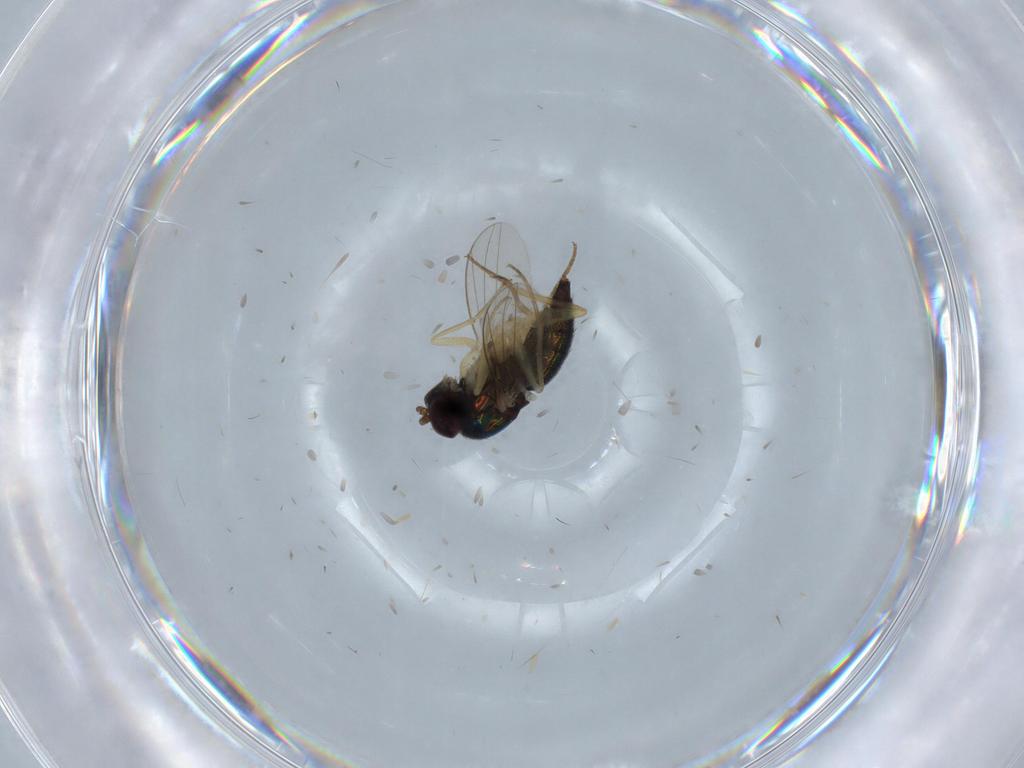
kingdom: Animalia
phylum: Arthropoda
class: Insecta
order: Diptera
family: Dolichopodidae
